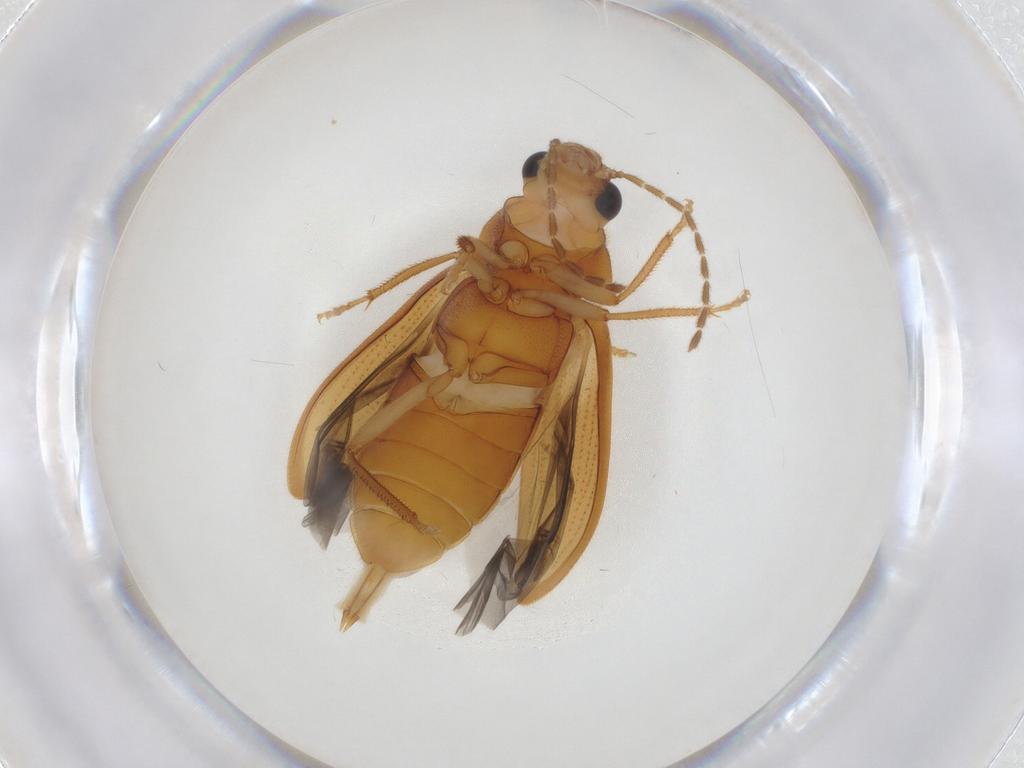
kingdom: Animalia
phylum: Arthropoda
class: Insecta
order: Coleoptera
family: Ptilodactylidae
